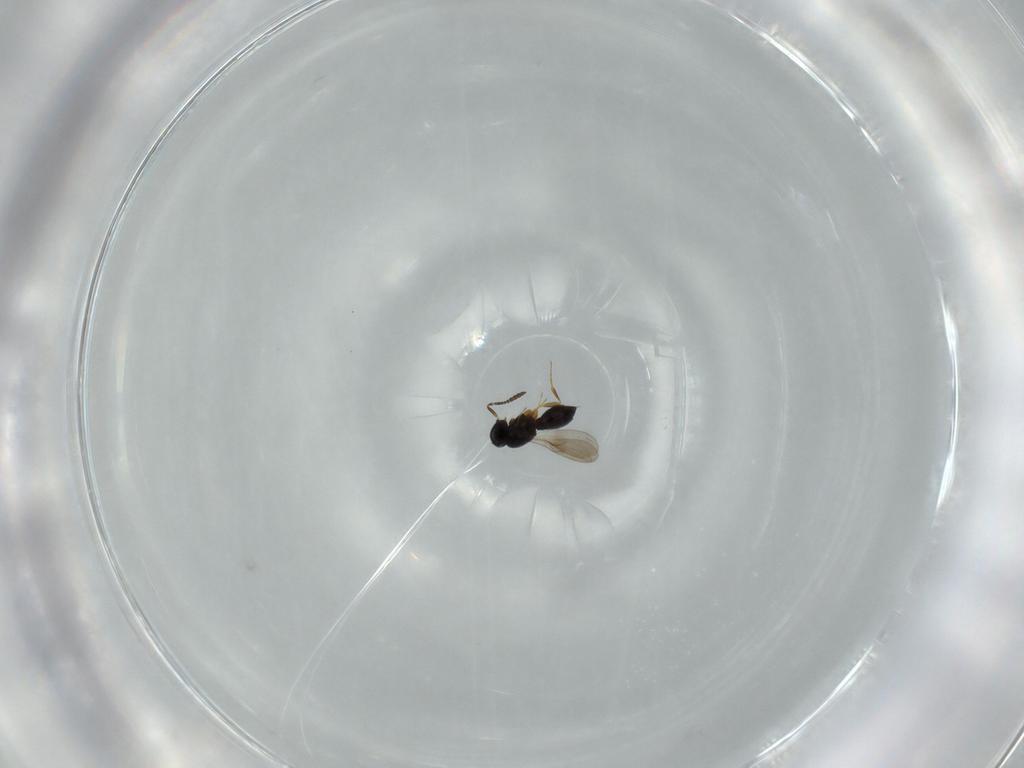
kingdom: Animalia
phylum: Arthropoda
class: Insecta
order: Hymenoptera
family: Scelionidae
